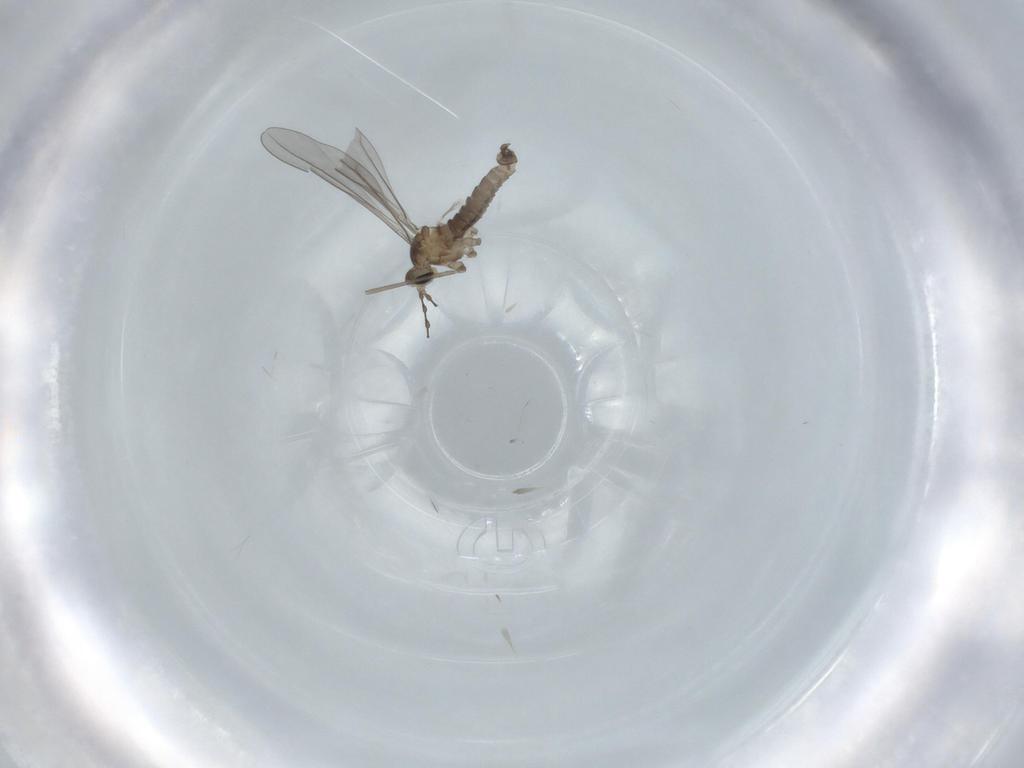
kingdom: Animalia
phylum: Arthropoda
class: Insecta
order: Diptera
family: Cecidomyiidae
